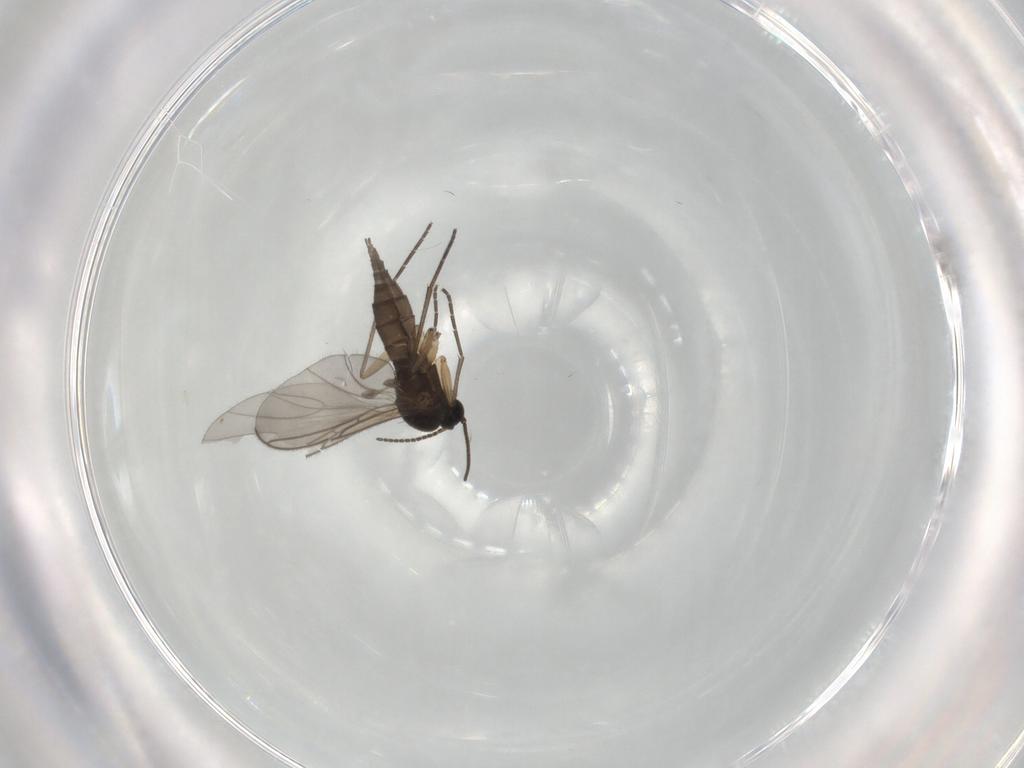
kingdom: Animalia
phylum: Arthropoda
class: Insecta
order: Diptera
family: Sciaridae
